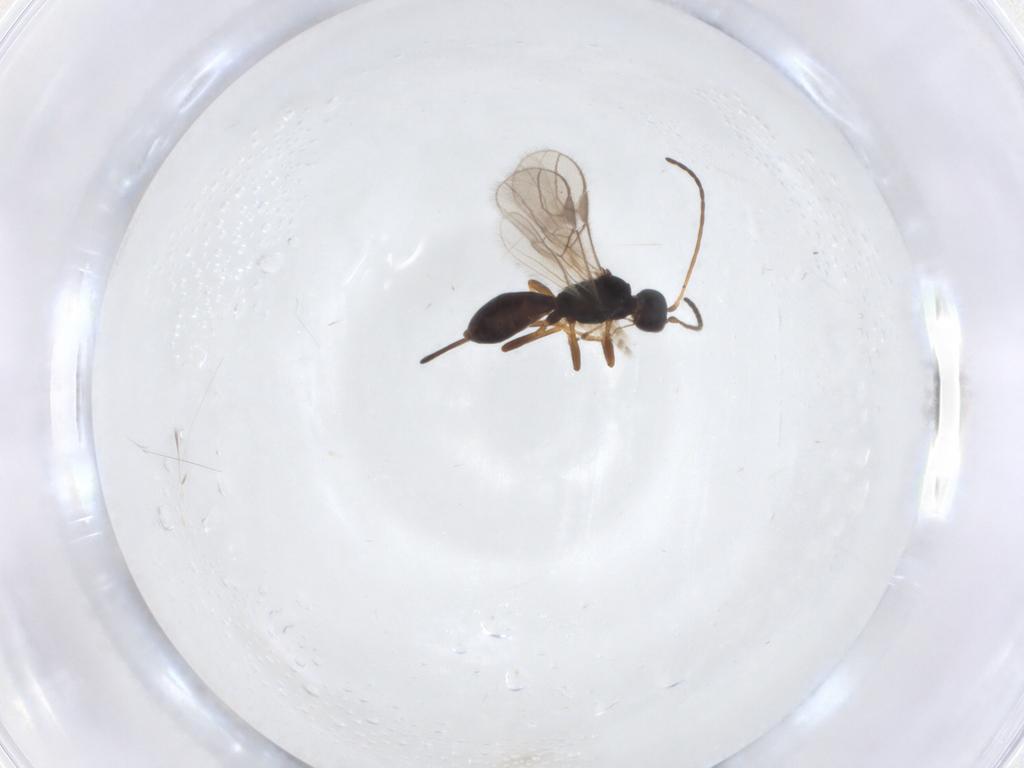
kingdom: Animalia
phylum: Arthropoda
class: Insecta
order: Hymenoptera
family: Braconidae
